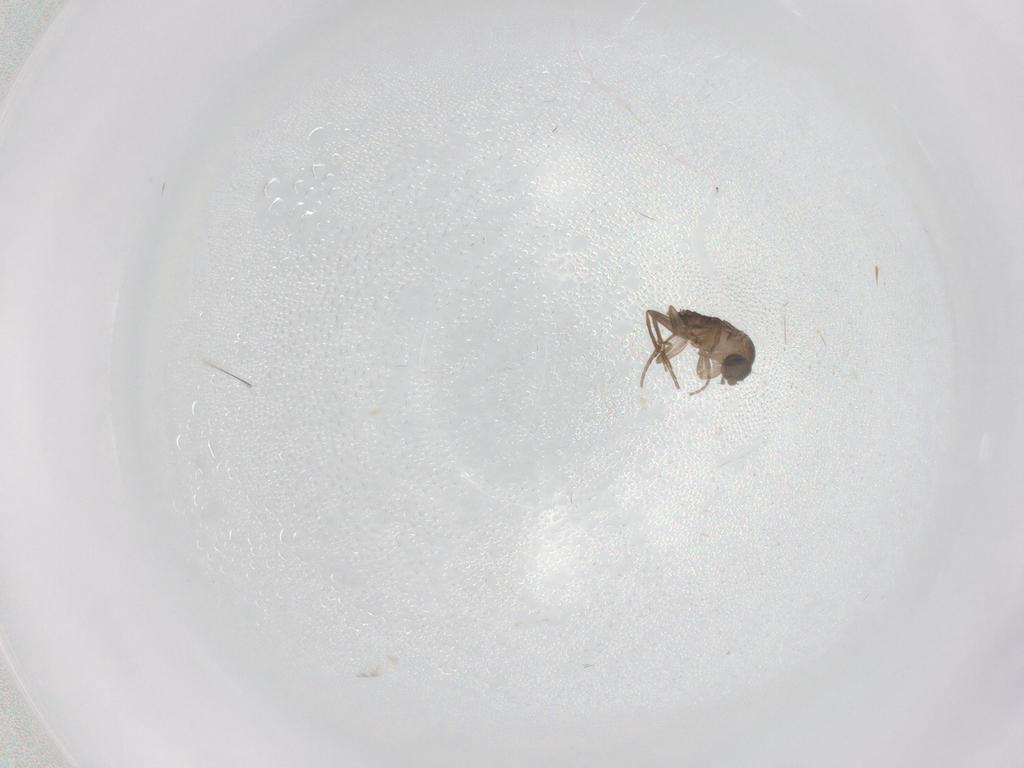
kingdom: Animalia
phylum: Arthropoda
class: Insecta
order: Diptera
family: Phoridae
